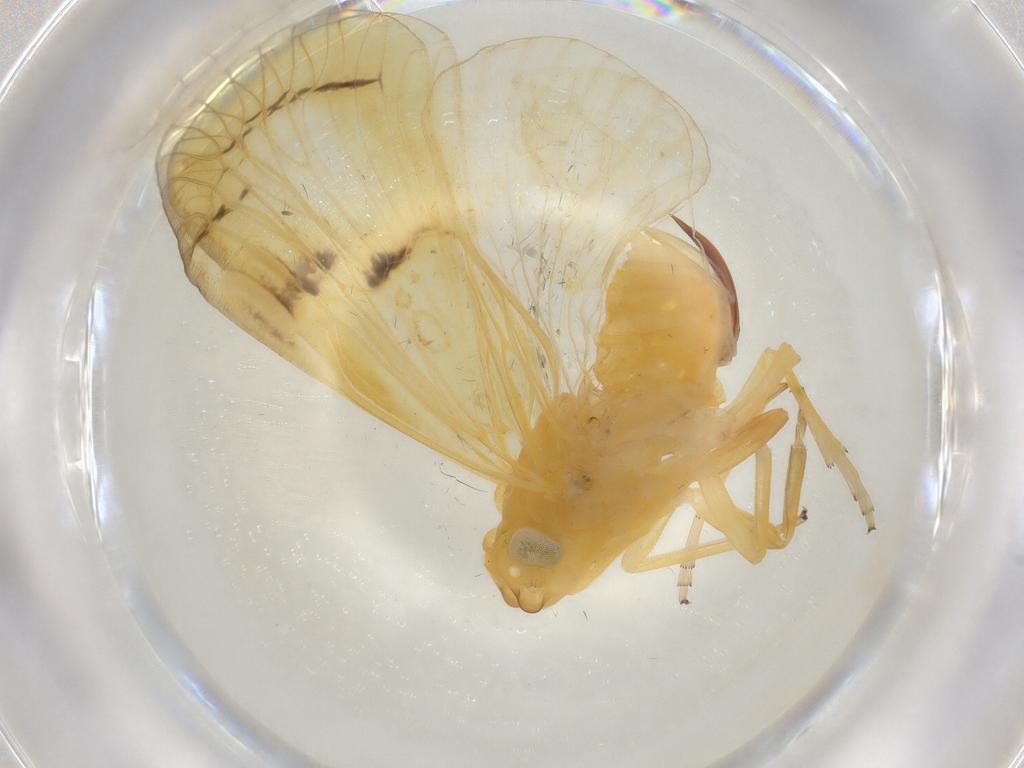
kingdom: Animalia
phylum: Arthropoda
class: Insecta
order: Hemiptera
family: Cixiidae
